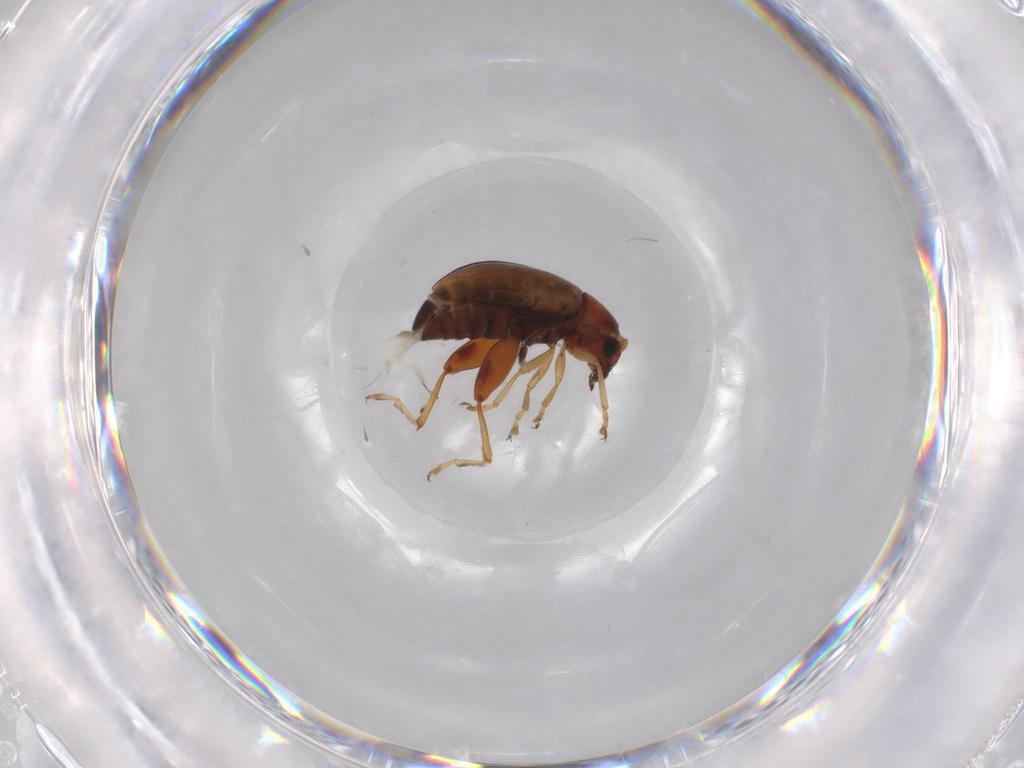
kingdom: Animalia
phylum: Arthropoda
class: Insecta
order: Coleoptera
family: Chrysomelidae
